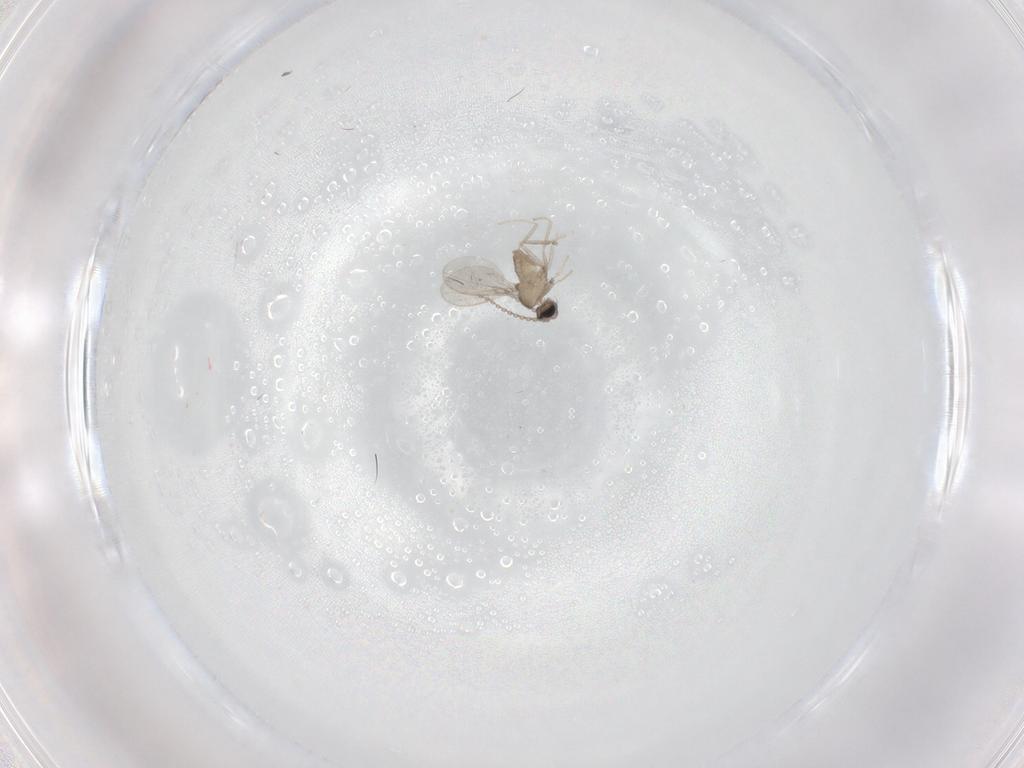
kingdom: Animalia
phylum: Arthropoda
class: Insecta
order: Diptera
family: Cecidomyiidae
